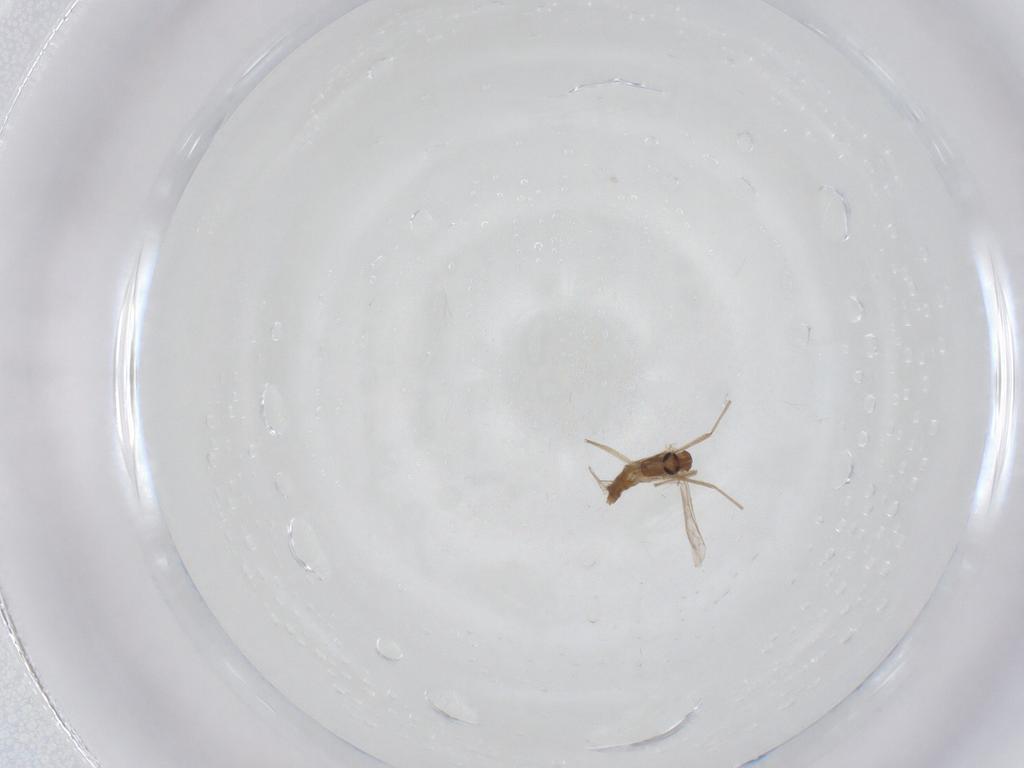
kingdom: Animalia
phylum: Arthropoda
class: Insecta
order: Diptera
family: Chironomidae
